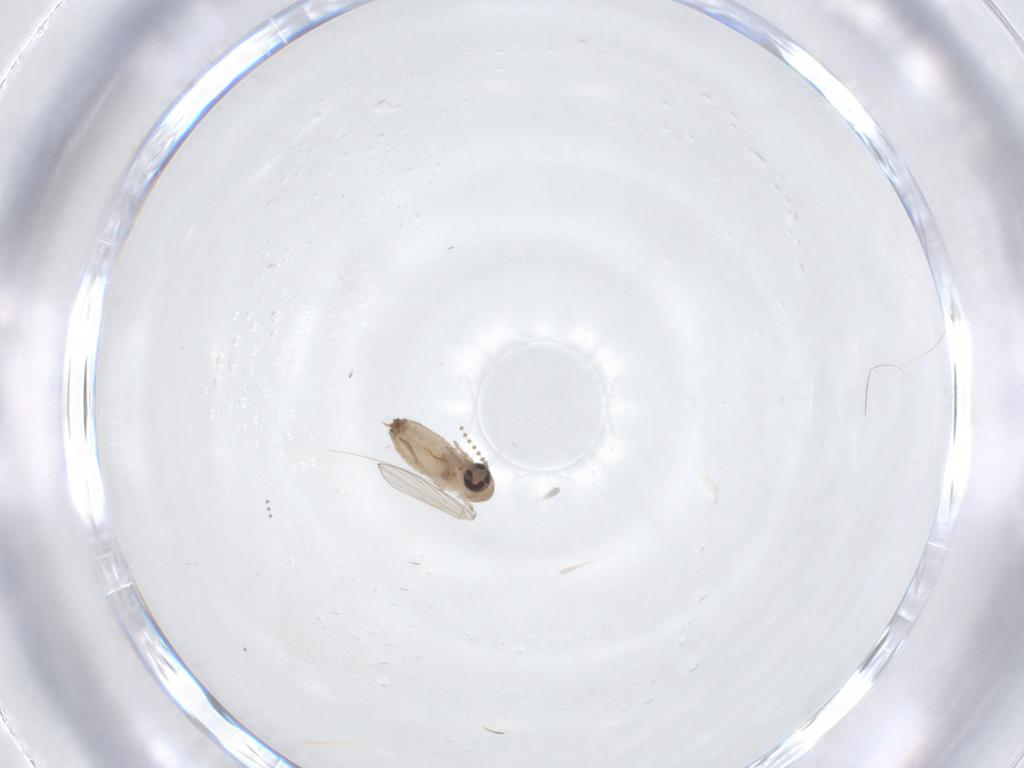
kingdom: Animalia
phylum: Arthropoda
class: Insecta
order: Diptera
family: Psychodidae
